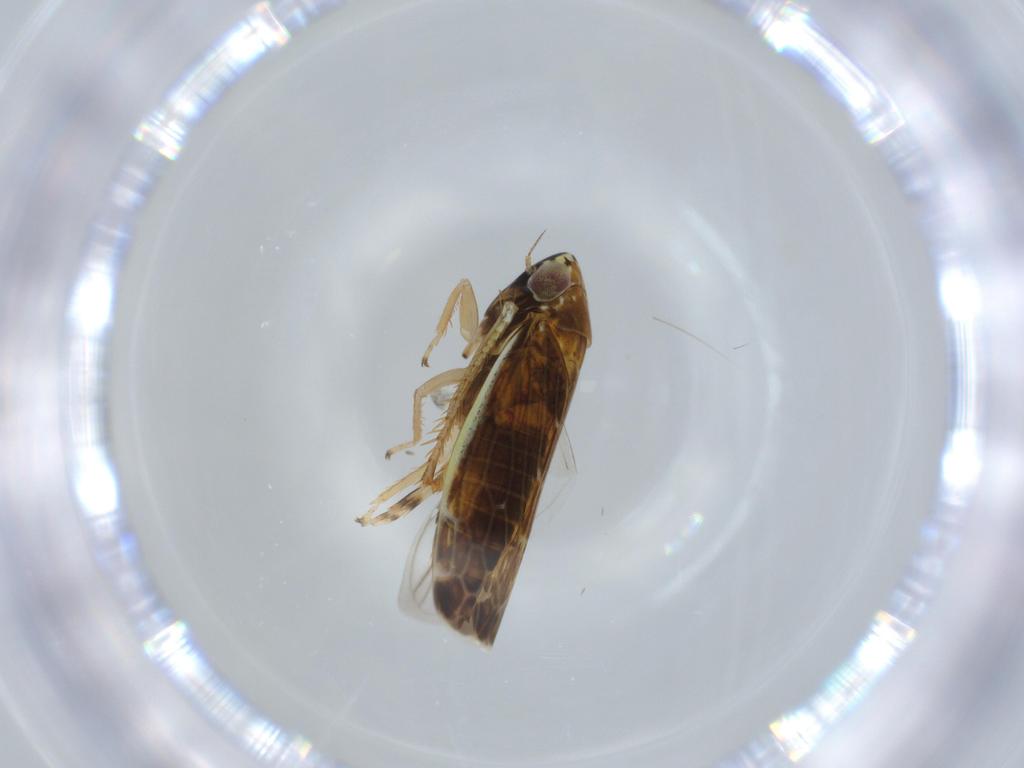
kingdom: Animalia
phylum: Arthropoda
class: Insecta
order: Hemiptera
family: Cicadellidae
